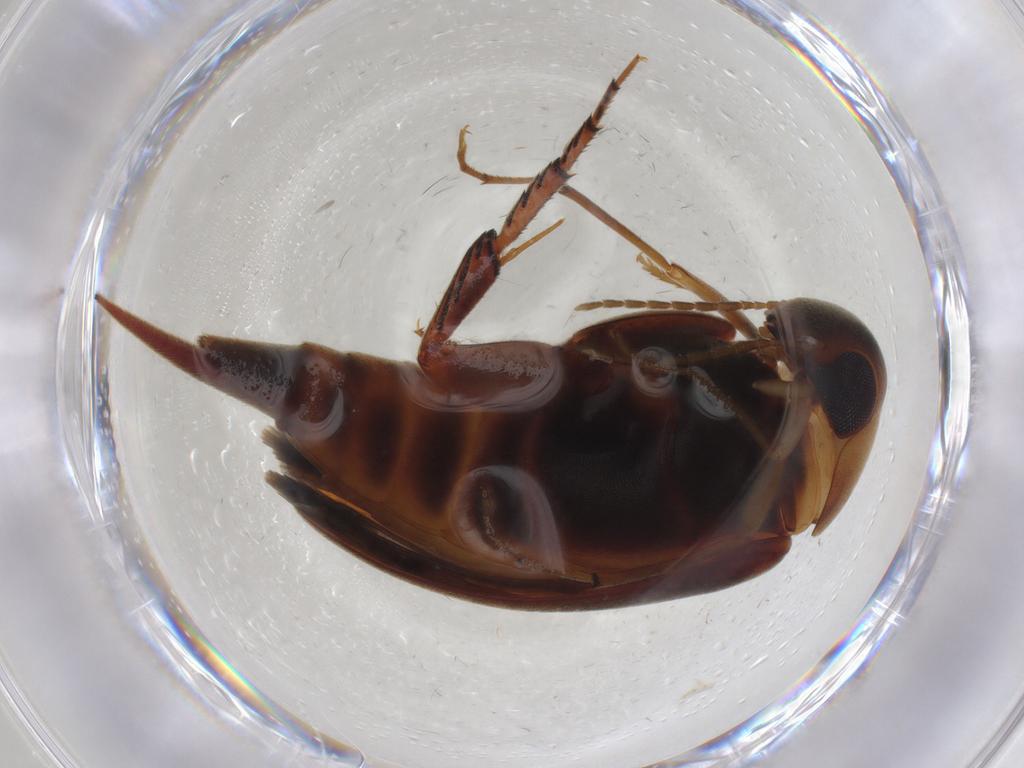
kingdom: Animalia
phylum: Arthropoda
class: Insecta
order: Coleoptera
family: Mordellidae
